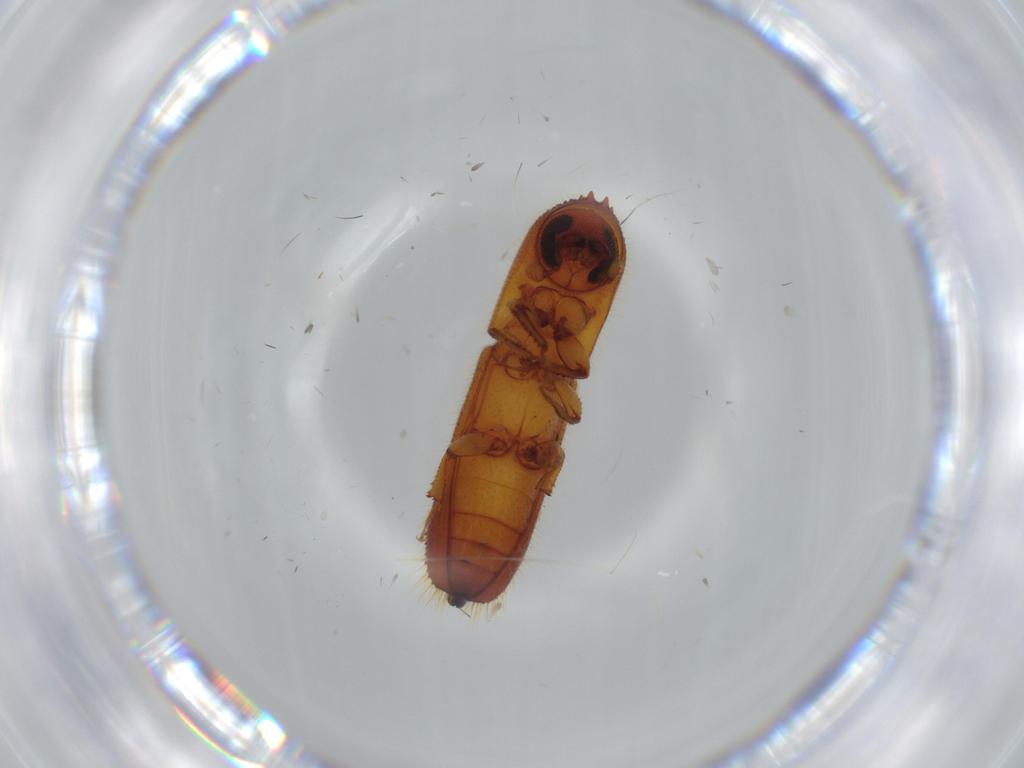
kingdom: Animalia
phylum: Arthropoda
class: Insecta
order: Coleoptera
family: Curculionidae
